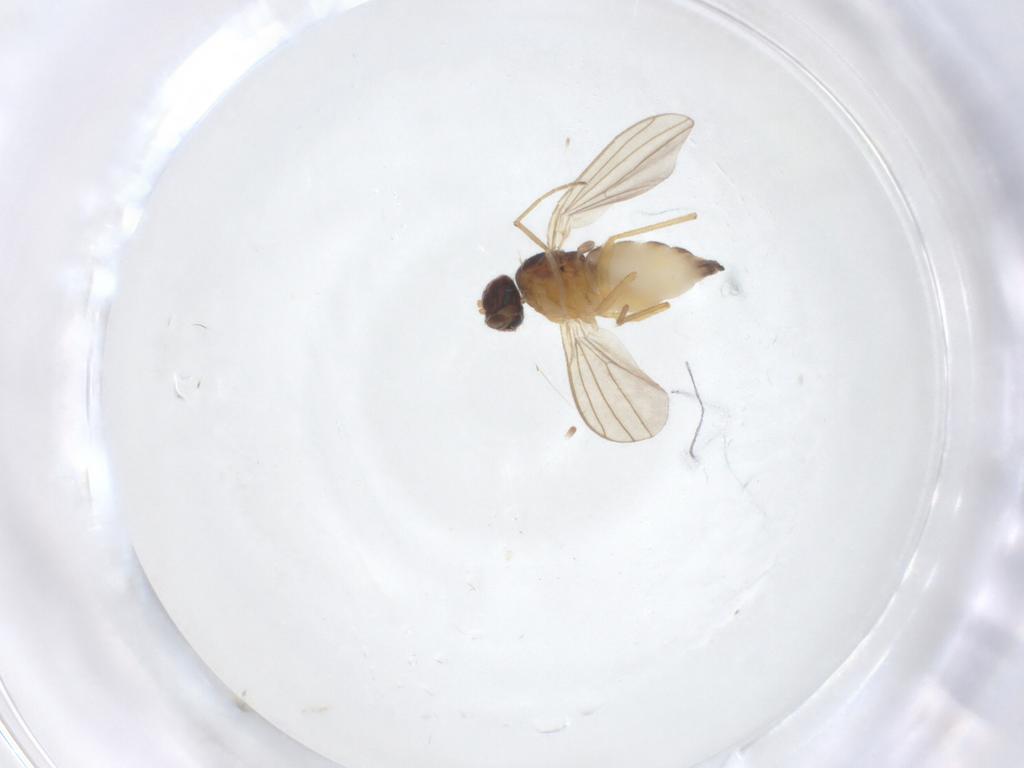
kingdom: Animalia
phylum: Arthropoda
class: Insecta
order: Diptera
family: Dolichopodidae
